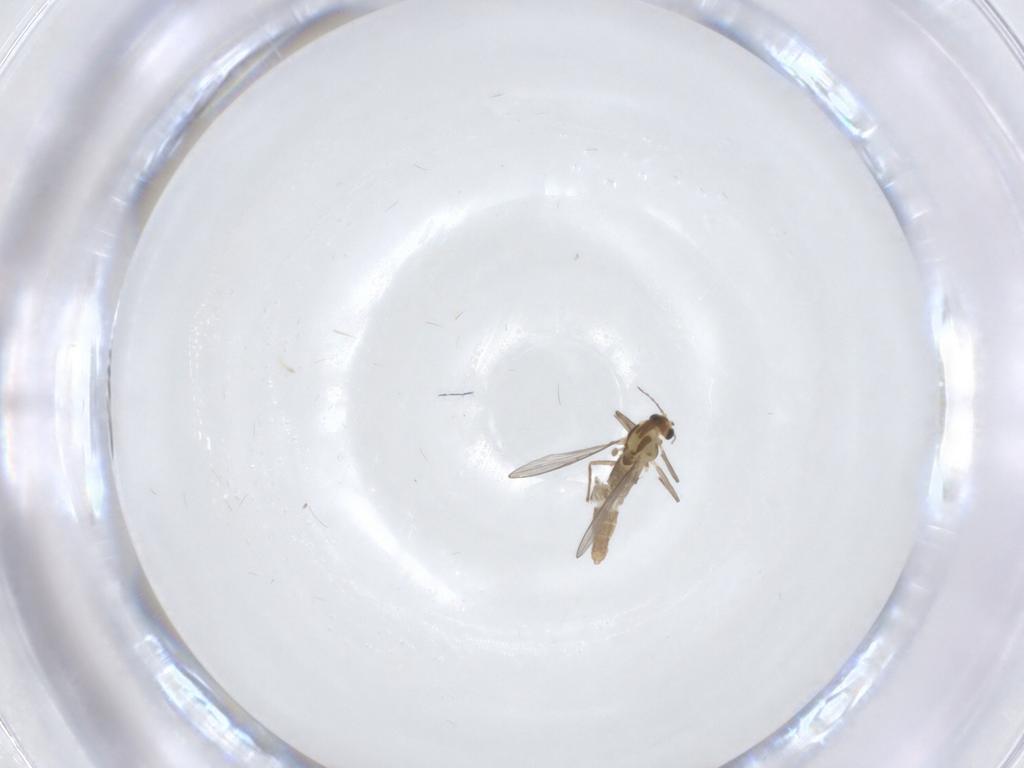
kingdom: Animalia
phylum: Arthropoda
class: Insecta
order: Diptera
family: Chironomidae
